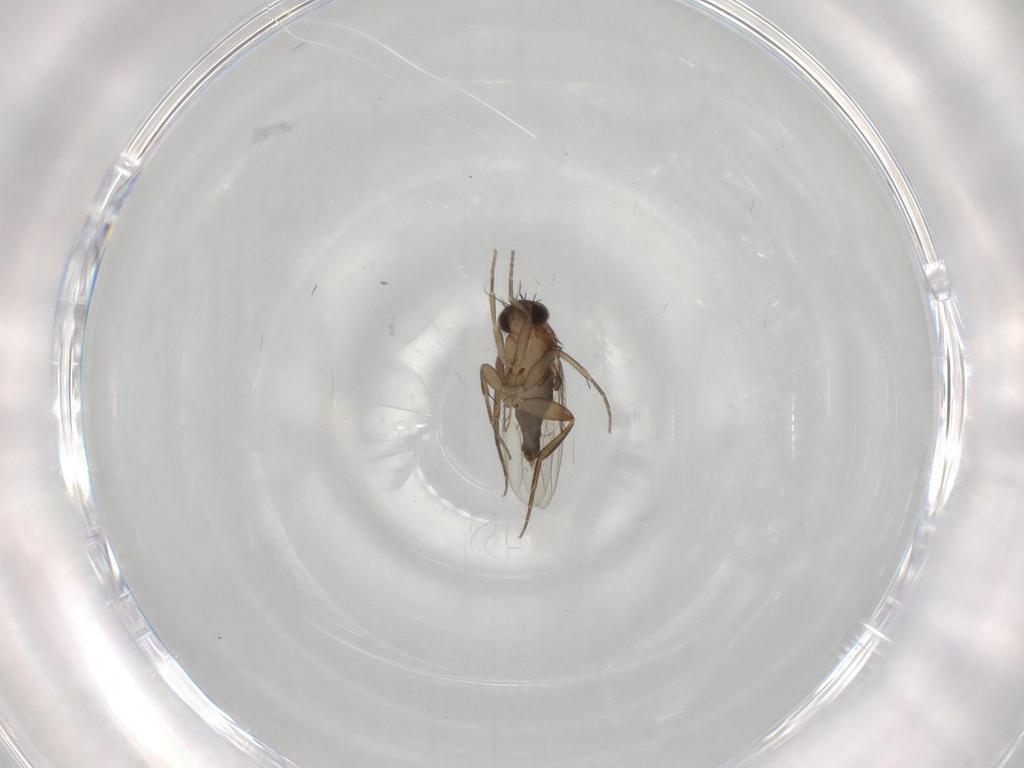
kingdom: Animalia
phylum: Arthropoda
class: Insecta
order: Diptera
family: Phoridae
